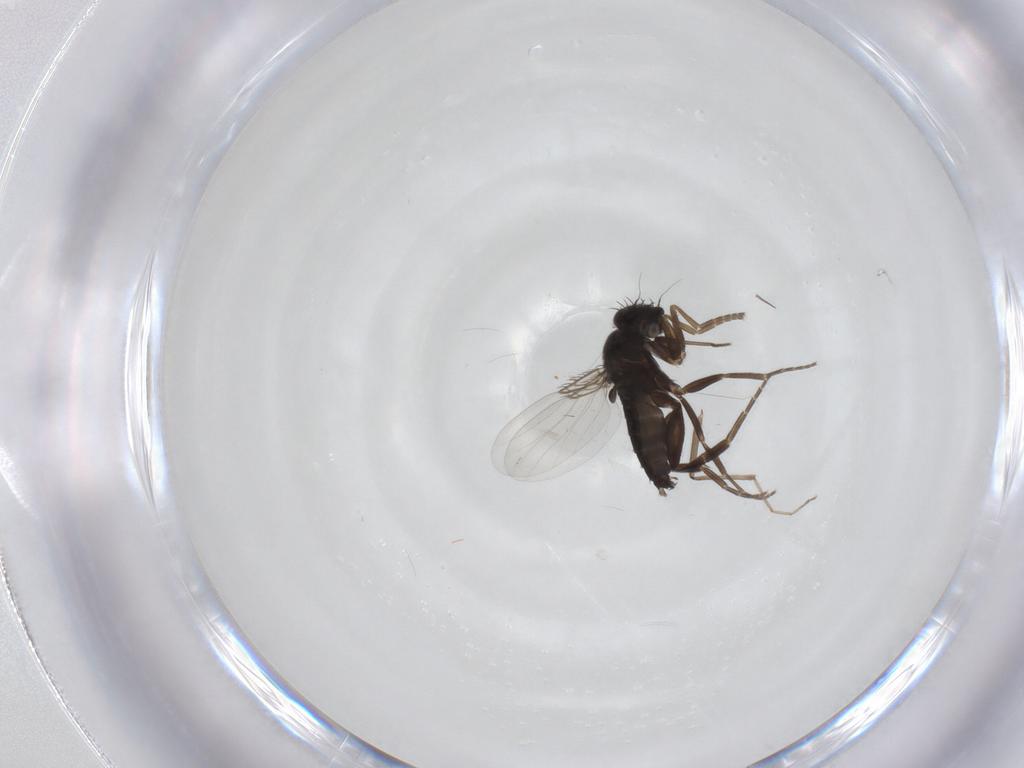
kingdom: Animalia
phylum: Arthropoda
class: Insecta
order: Diptera
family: Phoridae
